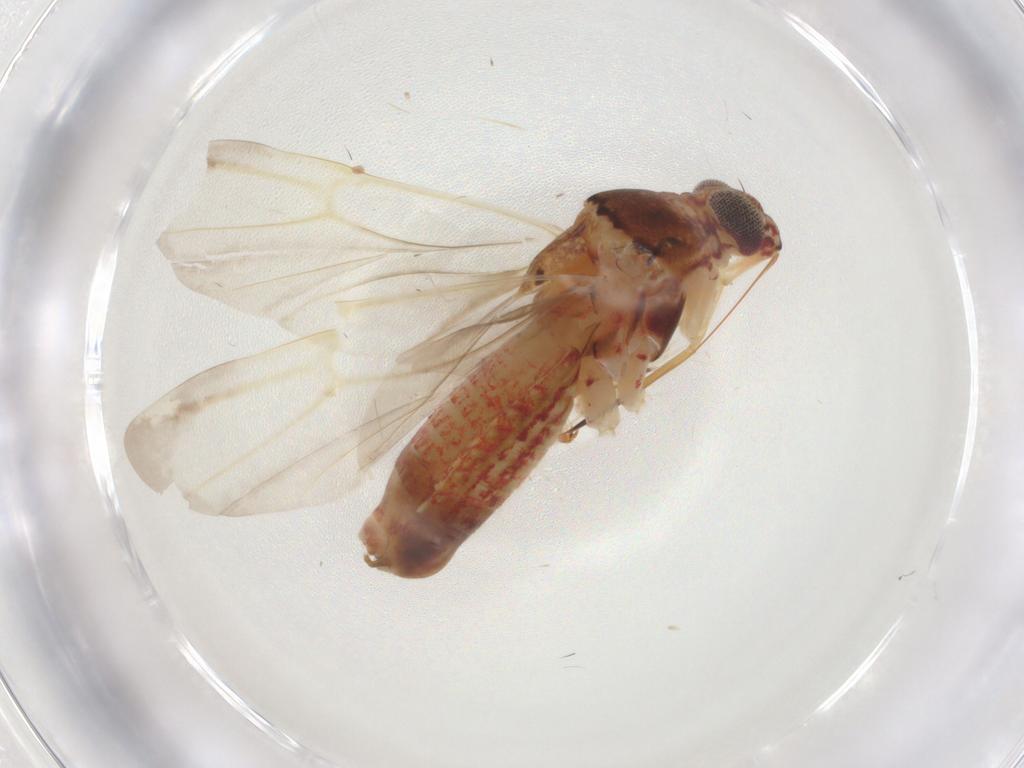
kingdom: Animalia
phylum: Arthropoda
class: Insecta
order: Hemiptera
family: Miridae
